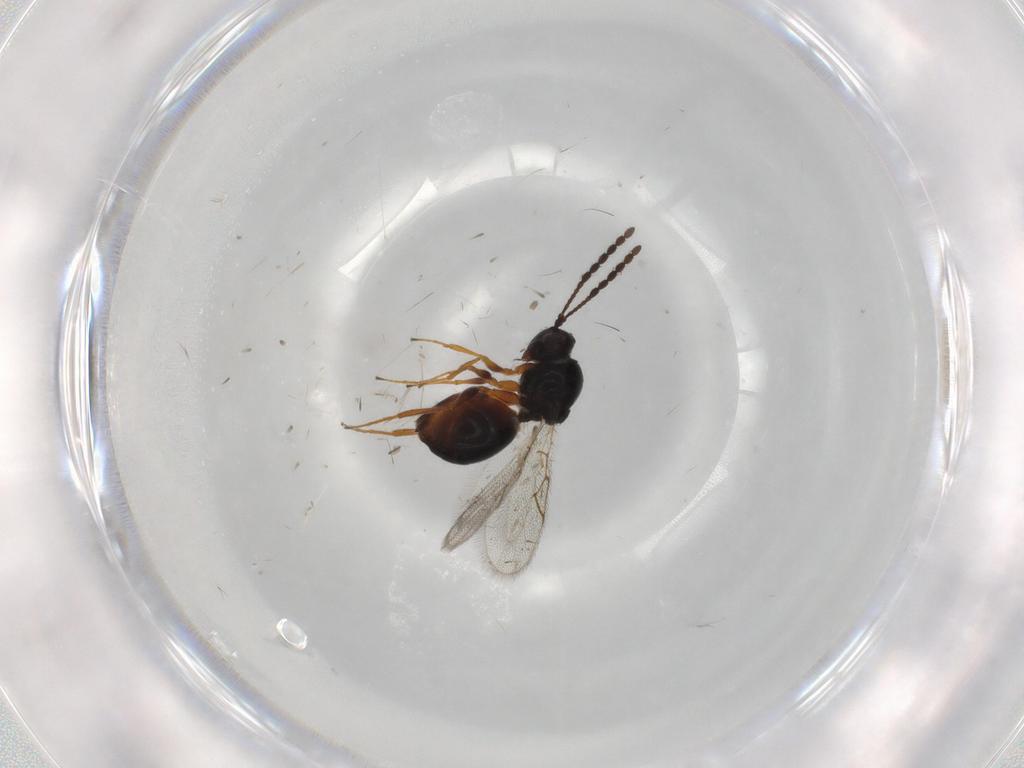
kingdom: Animalia
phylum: Arthropoda
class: Insecta
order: Hymenoptera
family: Figitidae
